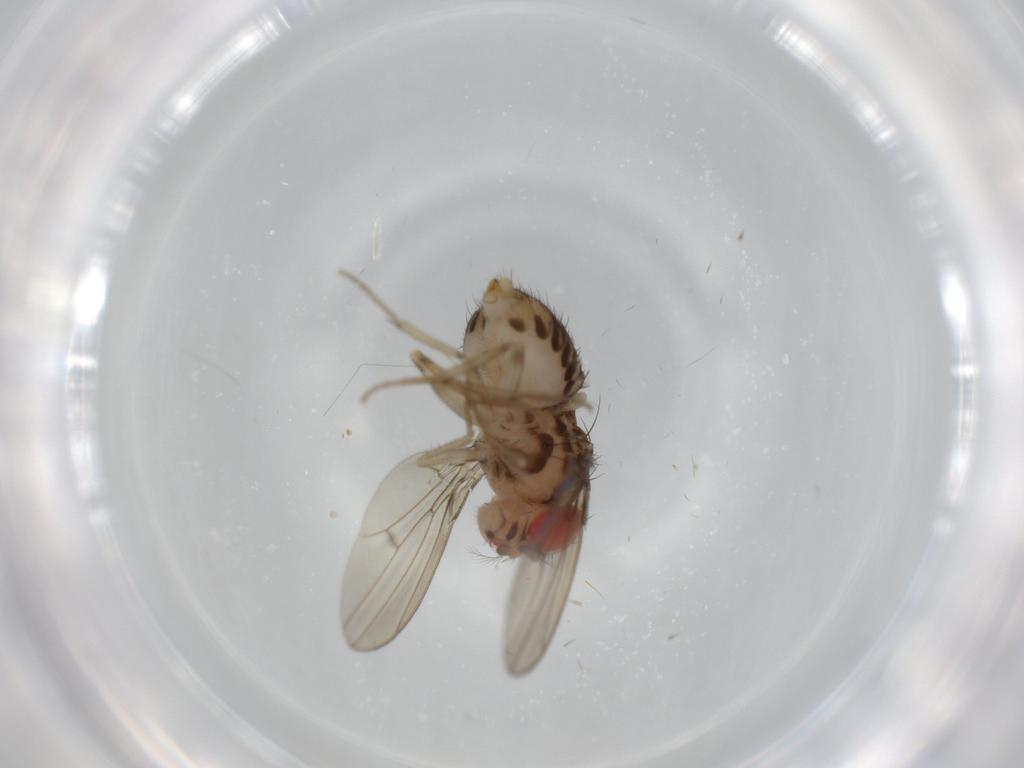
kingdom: Animalia
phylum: Arthropoda
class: Insecta
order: Diptera
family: Drosophilidae
